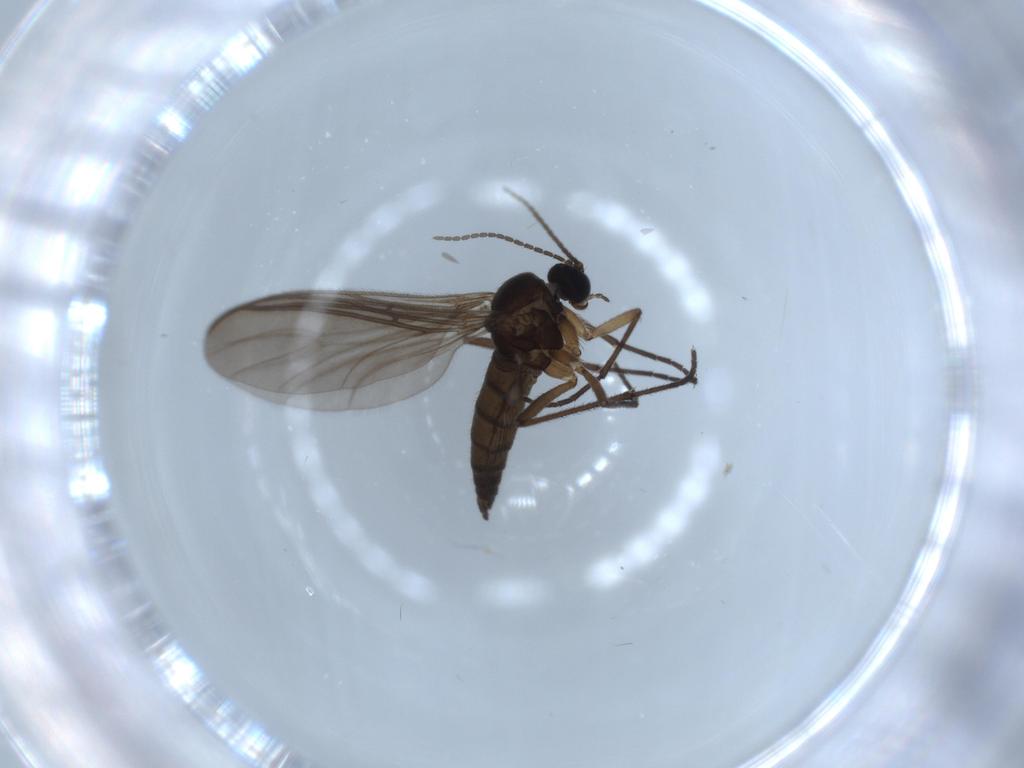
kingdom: Animalia
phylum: Arthropoda
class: Insecta
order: Diptera
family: Sciaridae
